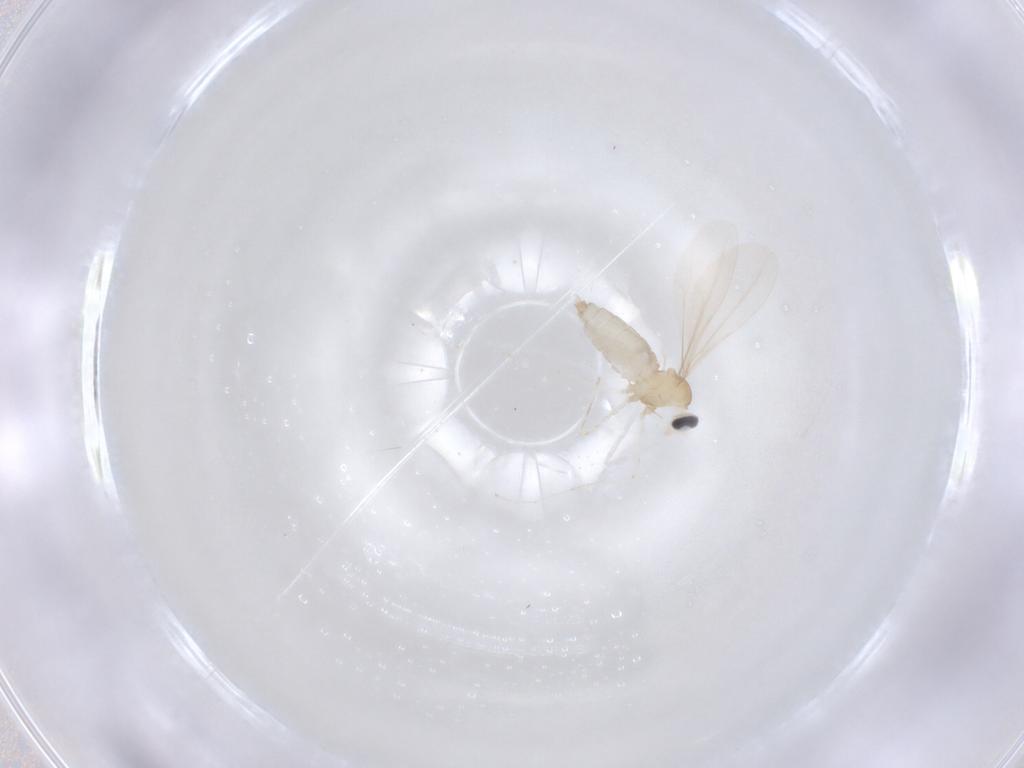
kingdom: Animalia
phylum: Arthropoda
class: Insecta
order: Diptera
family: Cecidomyiidae
